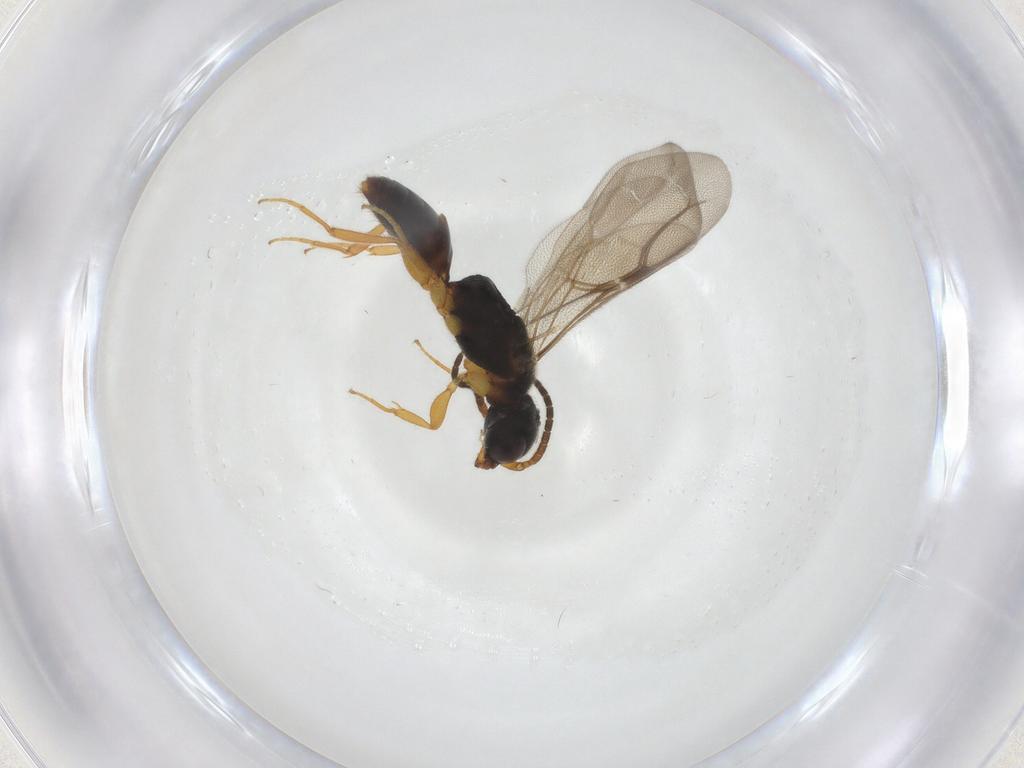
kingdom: Animalia
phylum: Arthropoda
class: Insecta
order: Hymenoptera
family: Bethylidae
